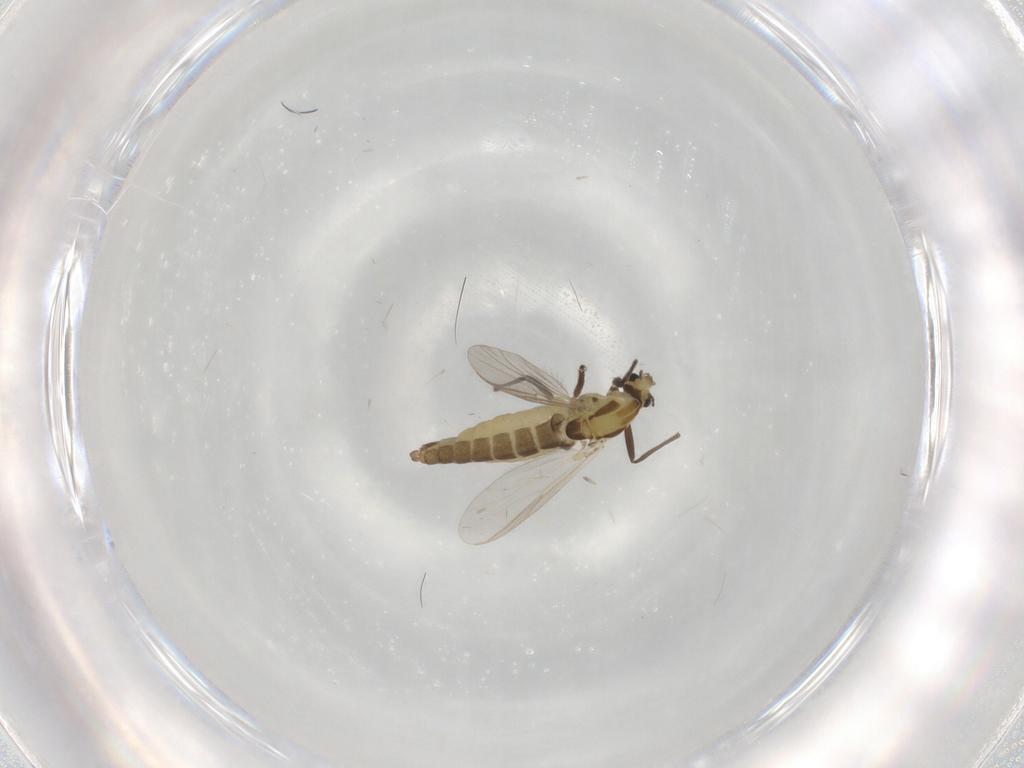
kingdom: Animalia
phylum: Arthropoda
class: Insecta
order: Diptera
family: Chironomidae
